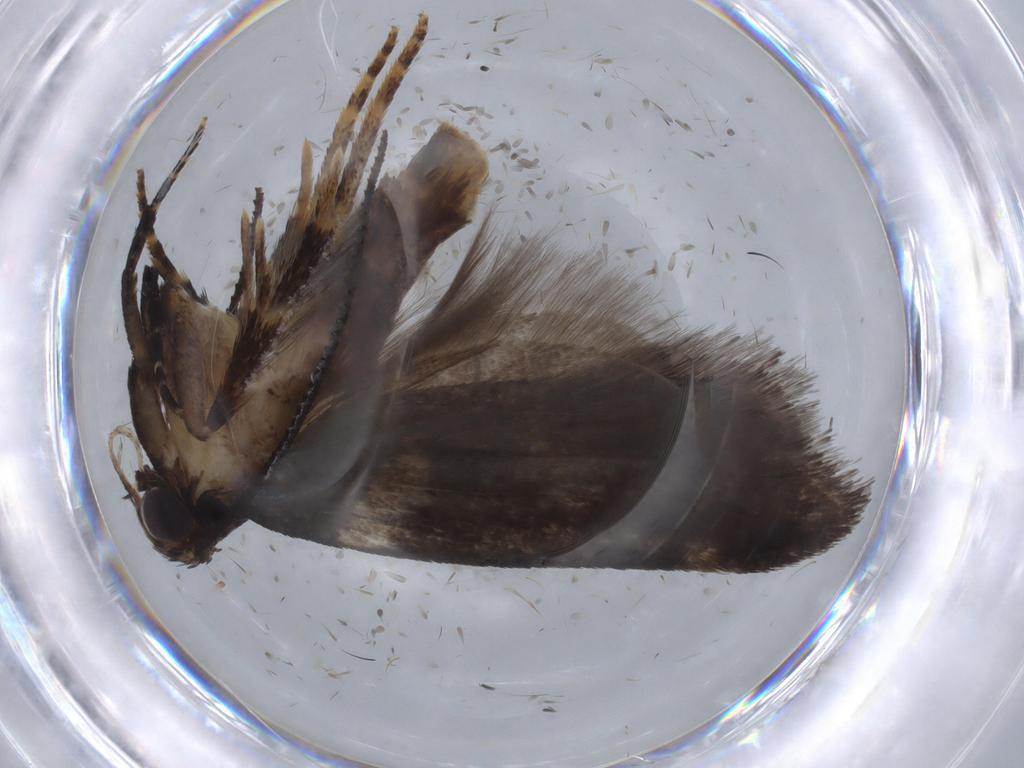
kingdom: Animalia
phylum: Arthropoda
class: Insecta
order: Lepidoptera
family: Gelechiidae
